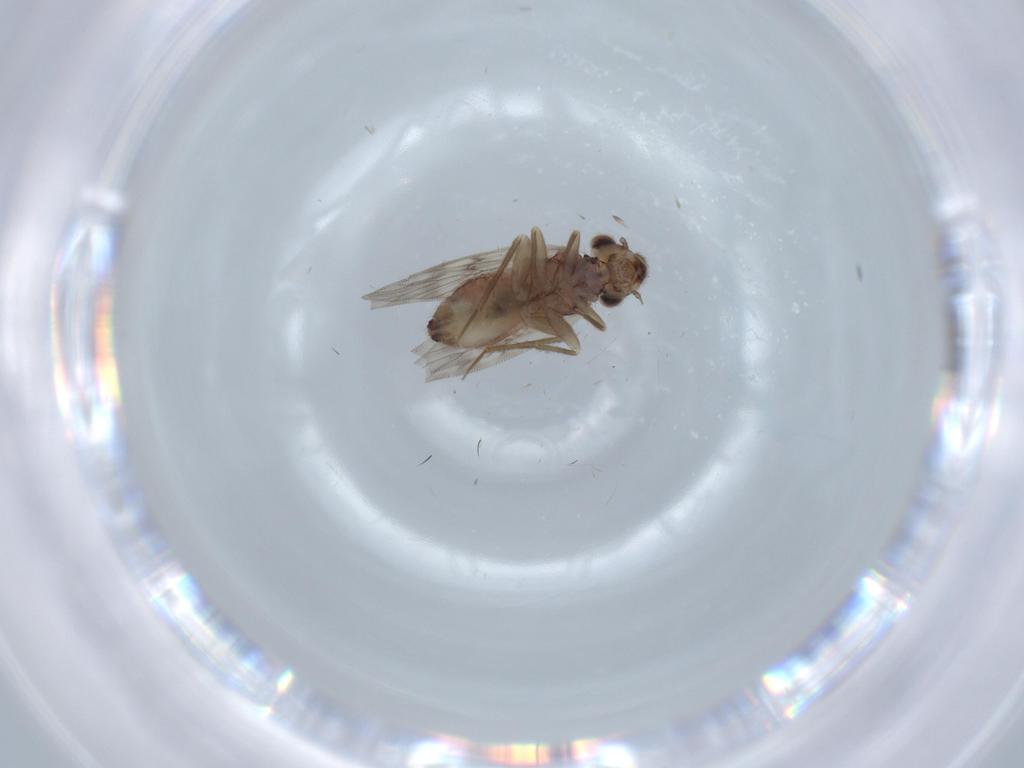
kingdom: Animalia
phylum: Arthropoda
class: Insecta
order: Psocodea
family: Lepidopsocidae
